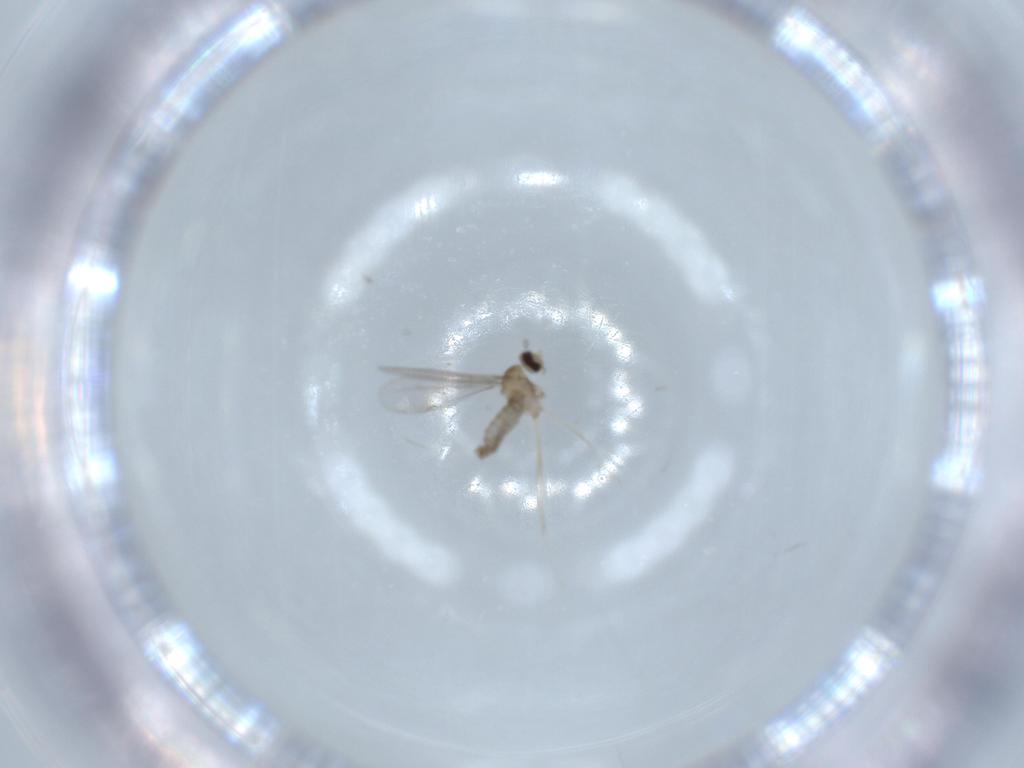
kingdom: Animalia
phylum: Arthropoda
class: Insecta
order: Diptera
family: Cecidomyiidae
